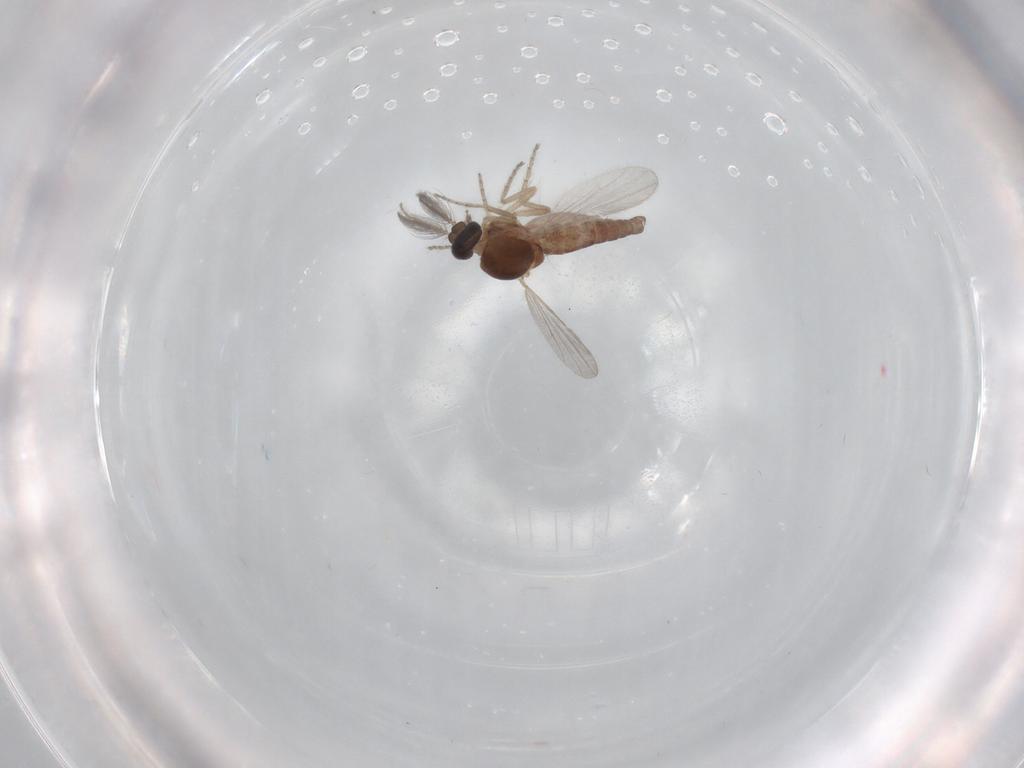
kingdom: Animalia
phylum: Arthropoda
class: Insecta
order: Diptera
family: Ceratopogonidae
